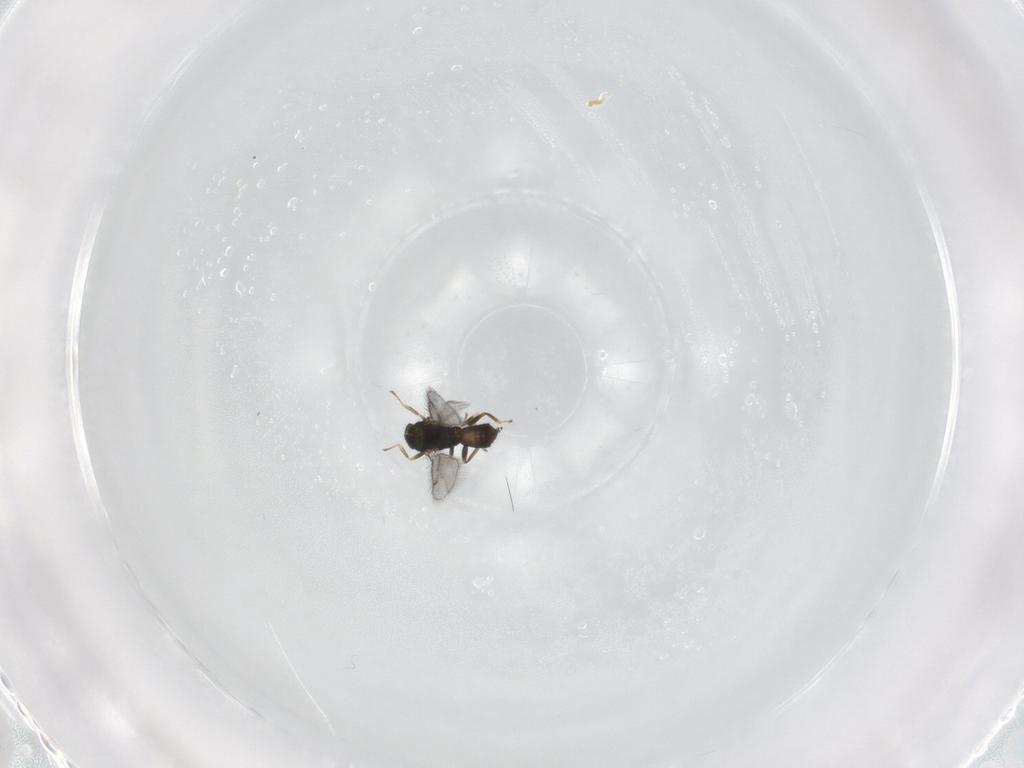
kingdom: Animalia
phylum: Arthropoda
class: Insecta
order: Hymenoptera
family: Eulophidae
